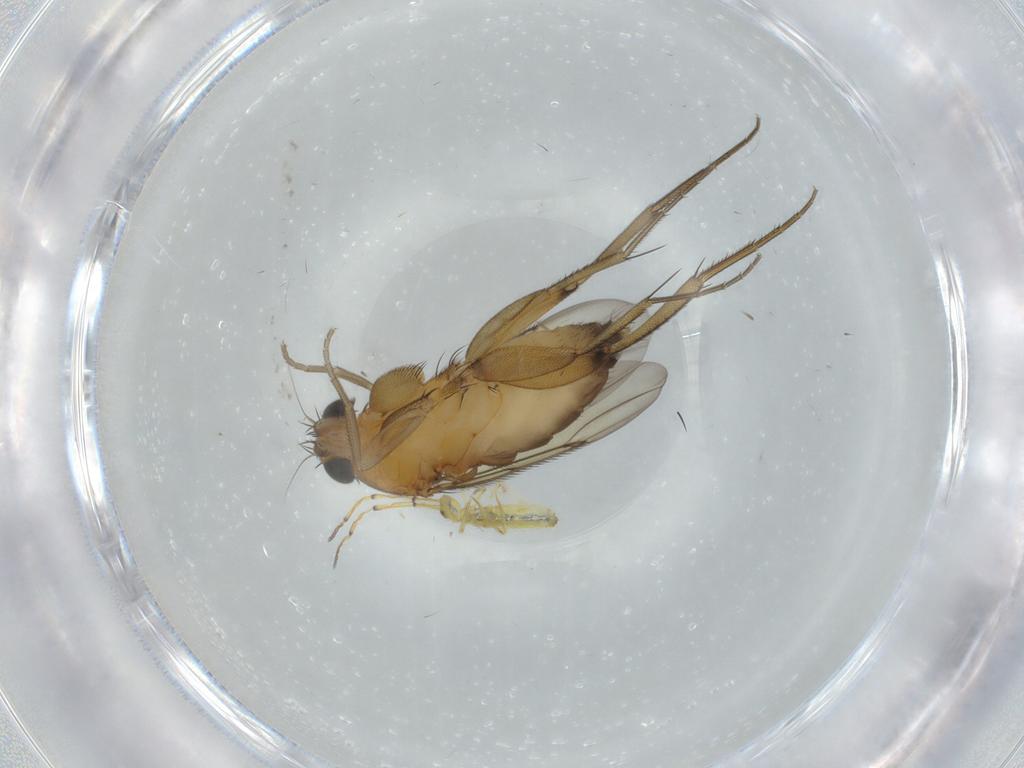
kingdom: Animalia
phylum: Arthropoda
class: Insecta
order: Diptera
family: Phoridae
